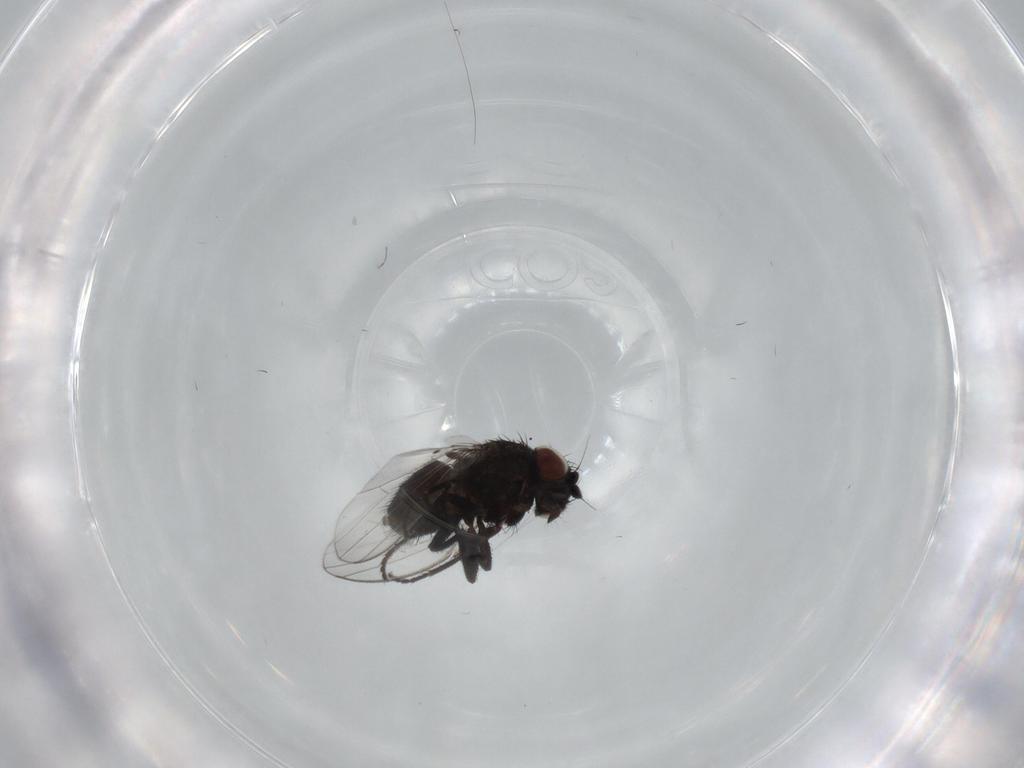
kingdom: Animalia
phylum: Arthropoda
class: Insecta
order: Diptera
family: Milichiidae
